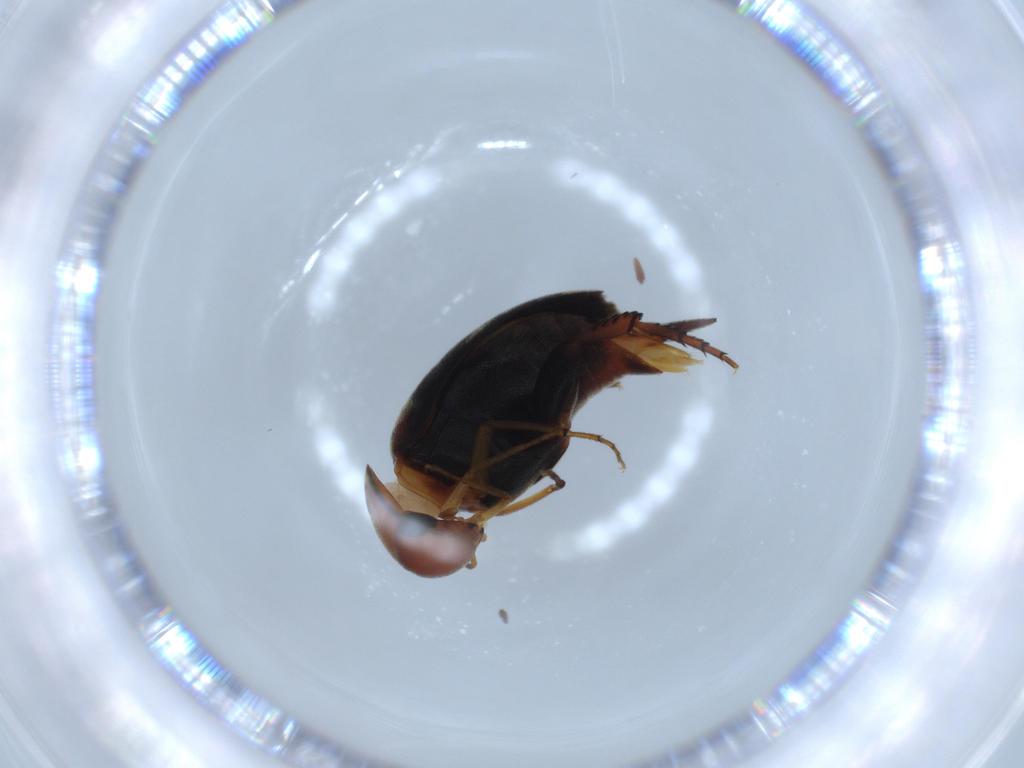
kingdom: Animalia
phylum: Arthropoda
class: Insecta
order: Coleoptera
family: Mordellidae
